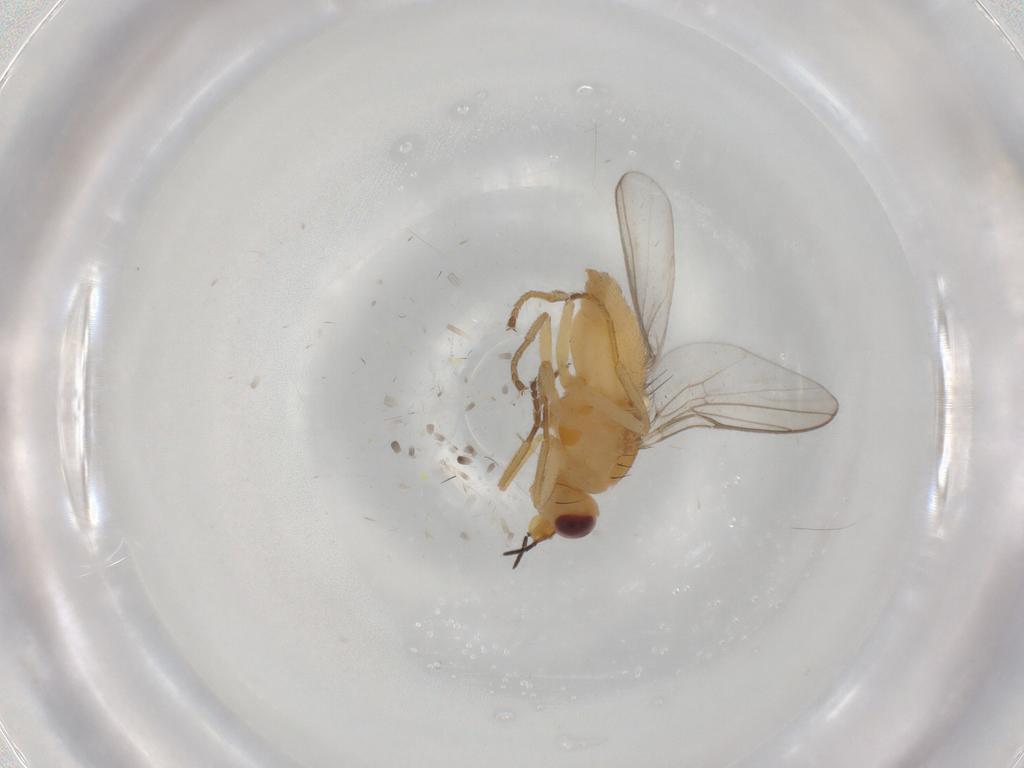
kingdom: Animalia
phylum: Arthropoda
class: Insecta
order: Diptera
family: Chloropidae
